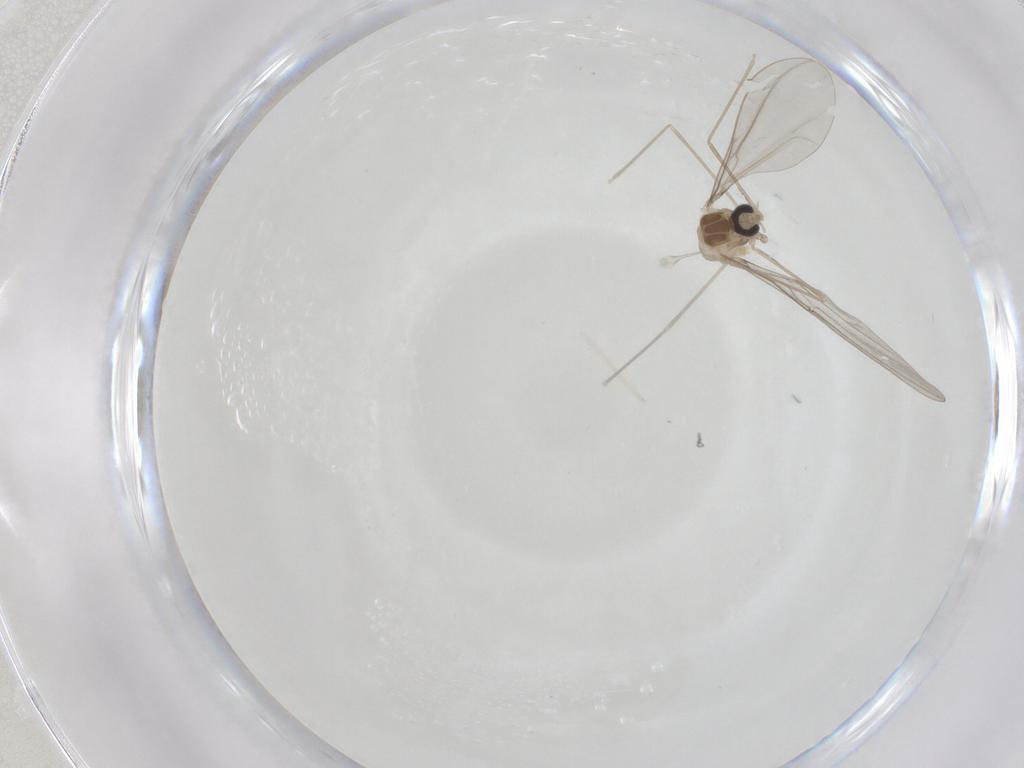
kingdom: Animalia
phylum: Arthropoda
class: Insecta
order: Diptera
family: Cecidomyiidae
